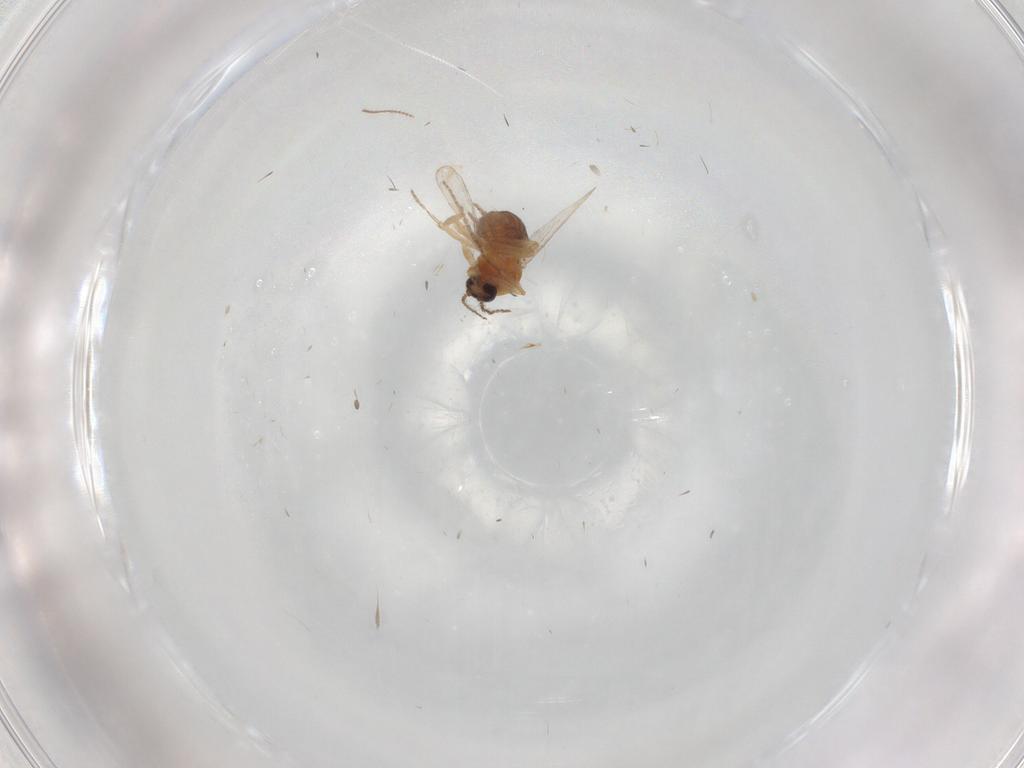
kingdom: Animalia
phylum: Arthropoda
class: Insecta
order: Diptera
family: Ceratopogonidae
